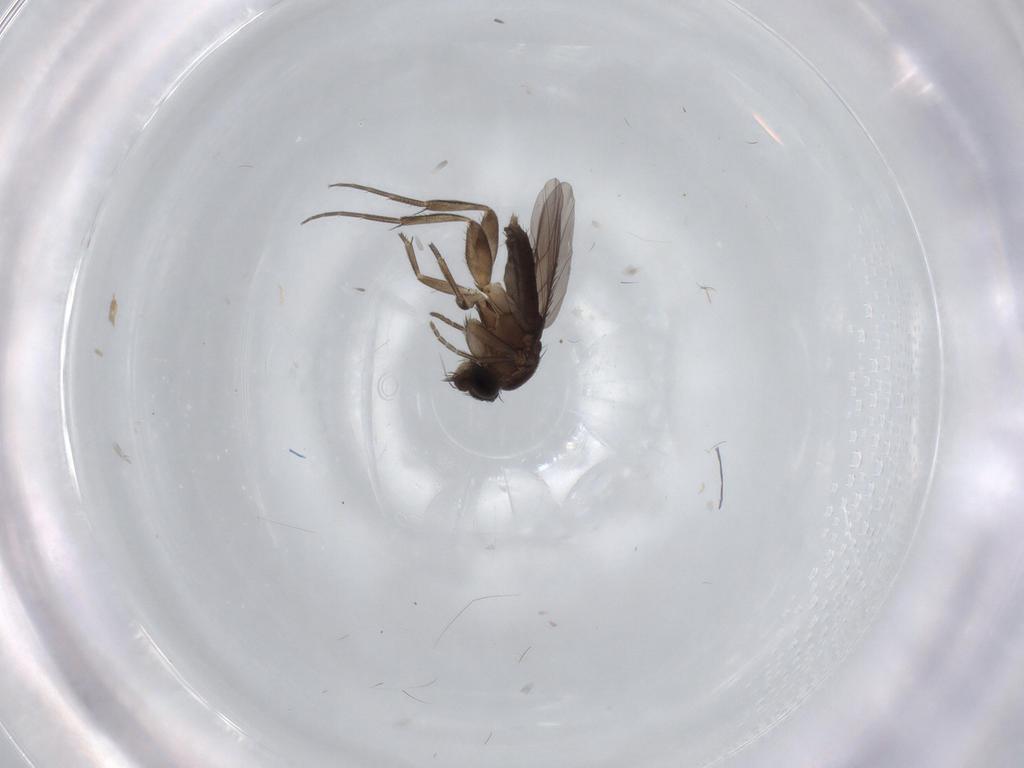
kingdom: Animalia
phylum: Arthropoda
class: Insecta
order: Diptera
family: Phoridae
